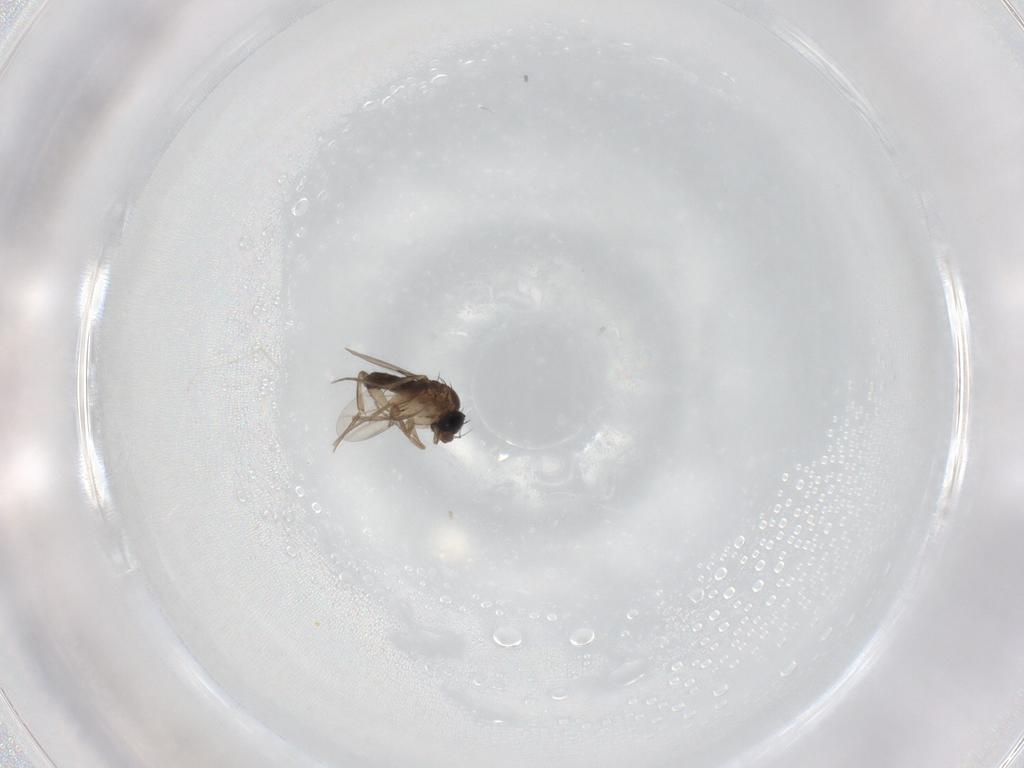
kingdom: Animalia
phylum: Arthropoda
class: Insecta
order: Diptera
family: Phoridae
